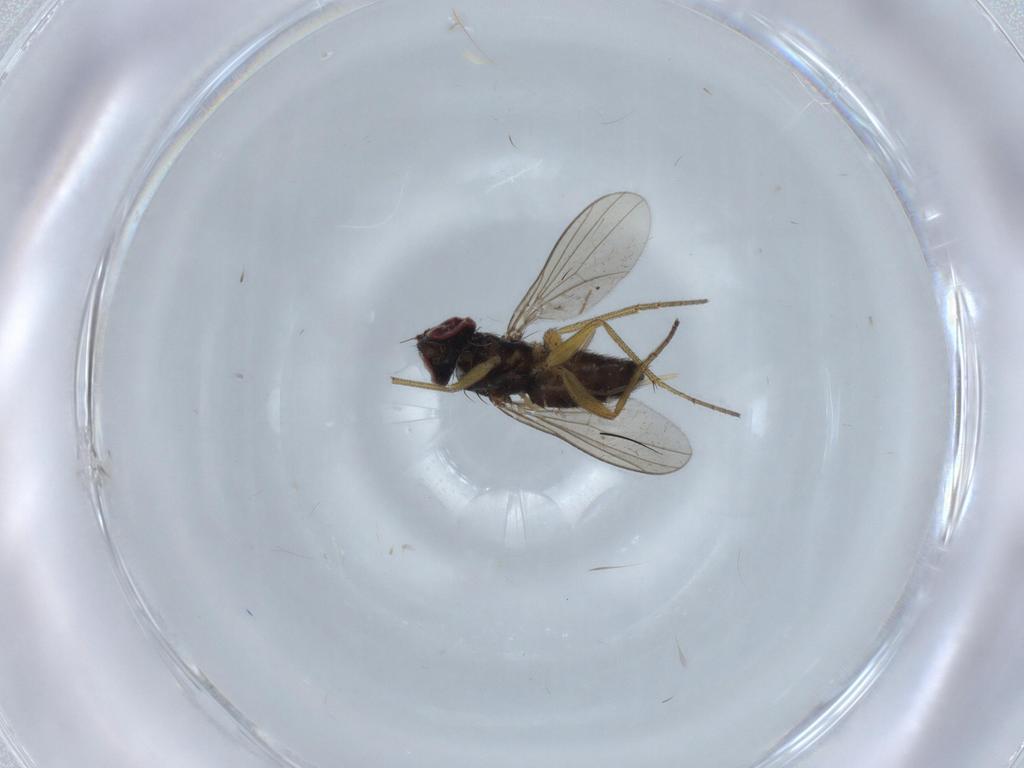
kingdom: Animalia
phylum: Arthropoda
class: Insecta
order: Diptera
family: Dolichopodidae
